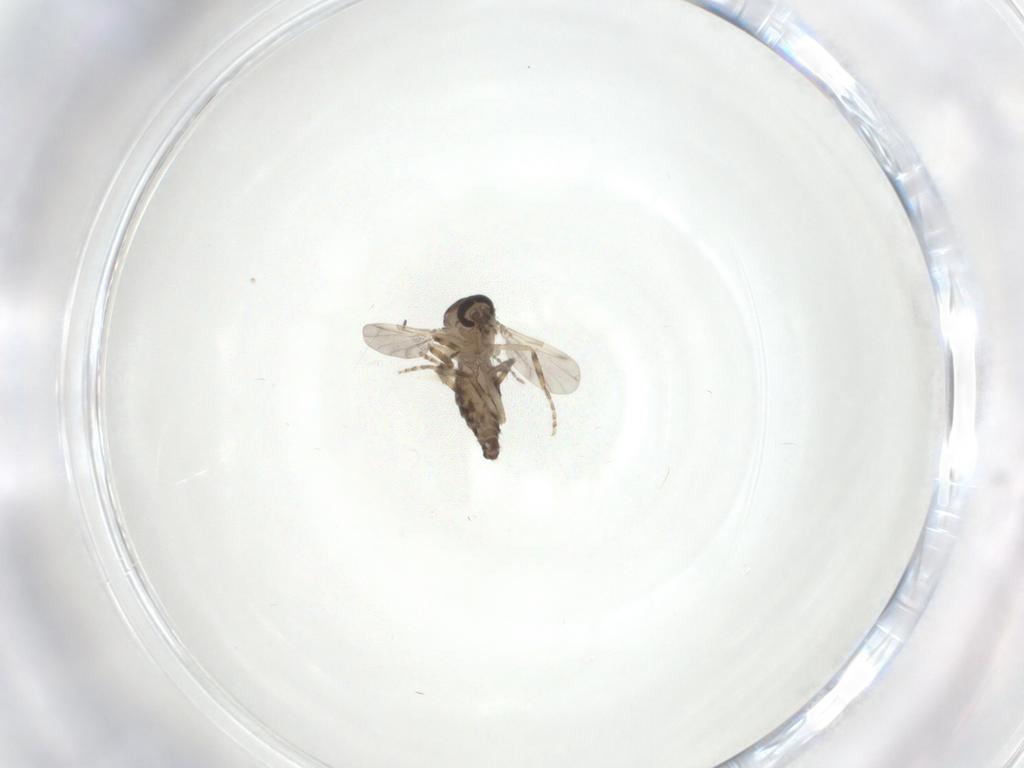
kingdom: Animalia
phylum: Arthropoda
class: Insecta
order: Diptera
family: Ceratopogonidae
